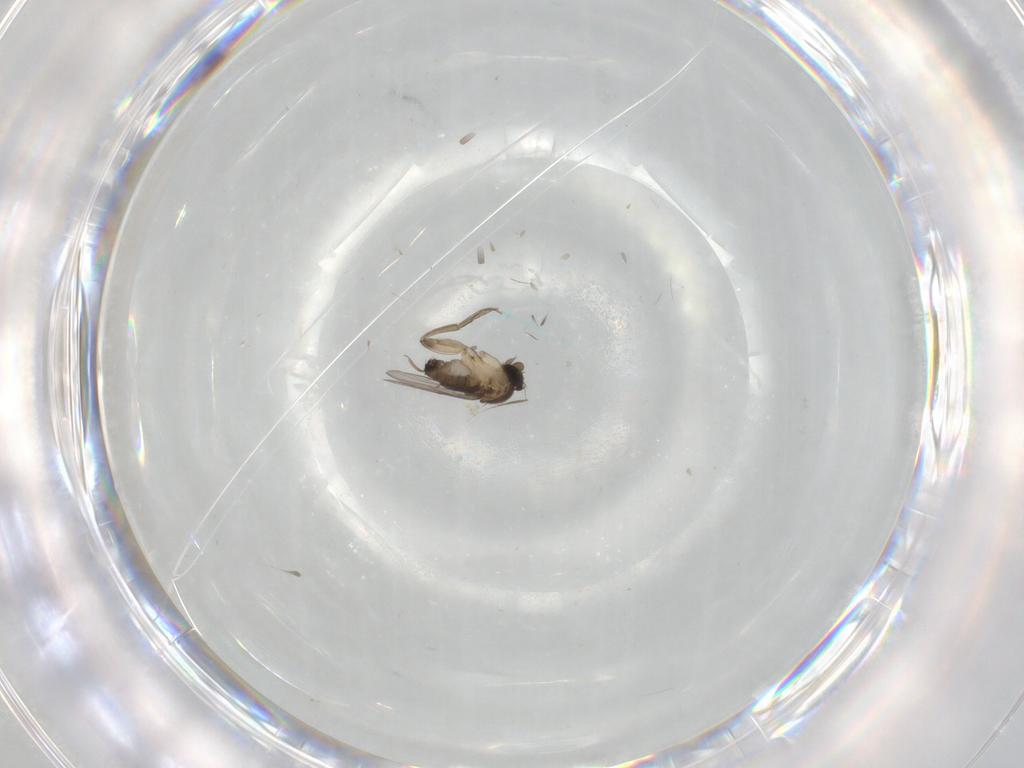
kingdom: Animalia
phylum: Arthropoda
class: Insecta
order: Diptera
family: Phoridae
